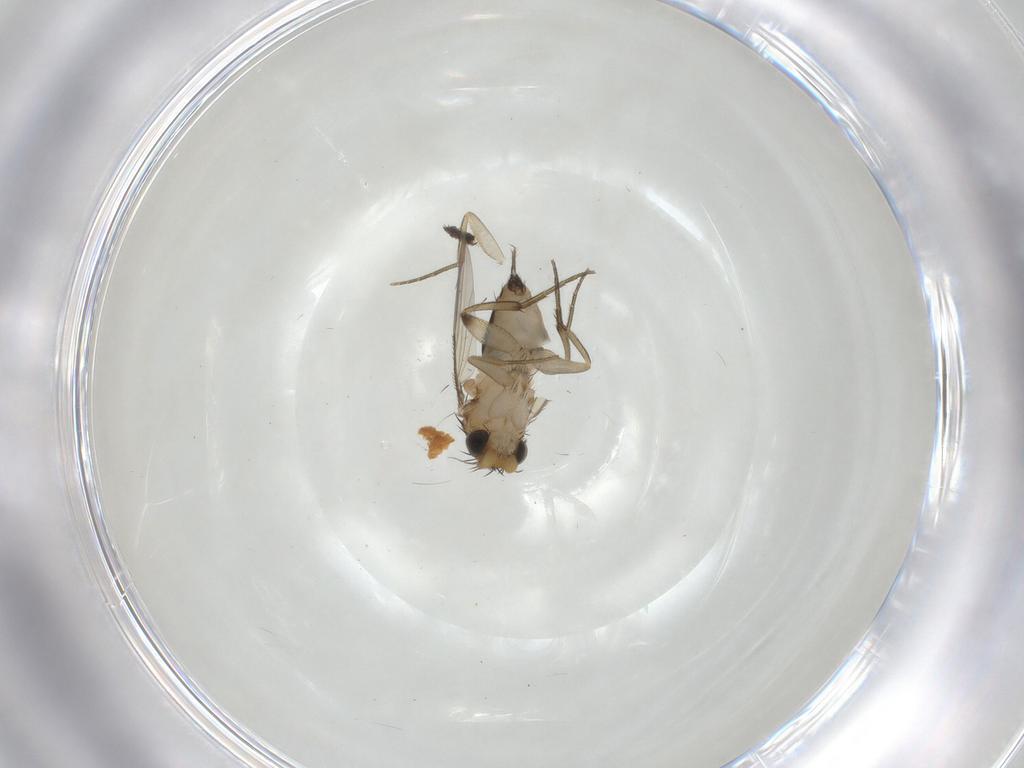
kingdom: Animalia
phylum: Arthropoda
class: Insecta
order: Diptera
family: Phoridae
